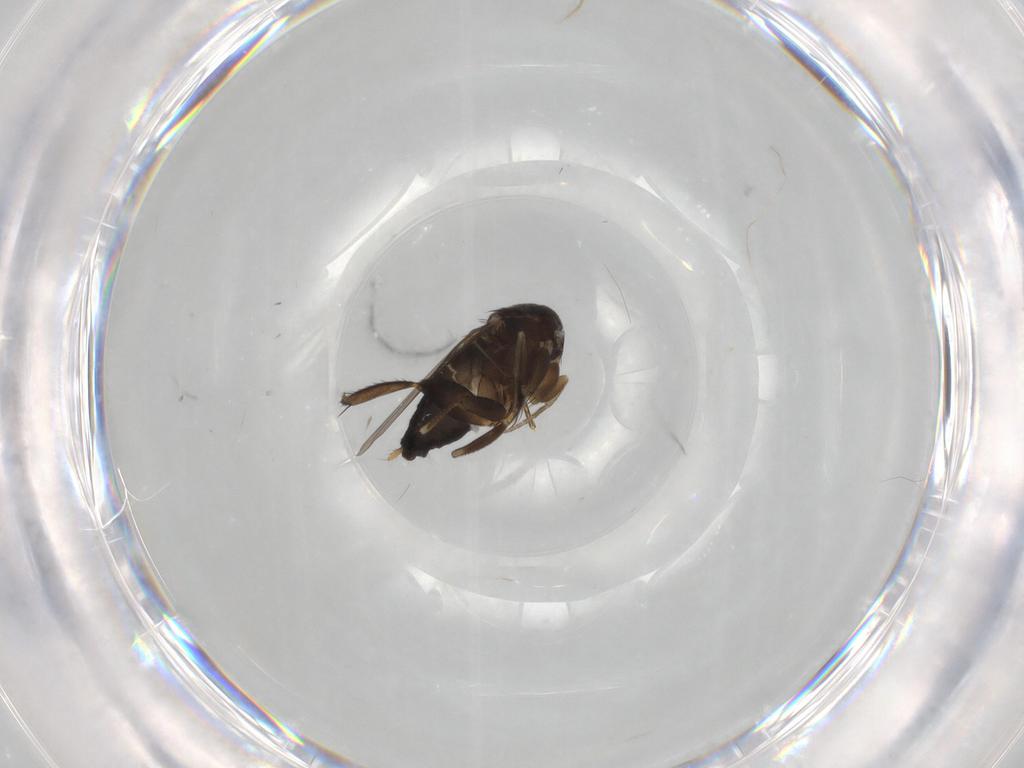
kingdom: Animalia
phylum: Arthropoda
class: Insecta
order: Diptera
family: Phoridae
